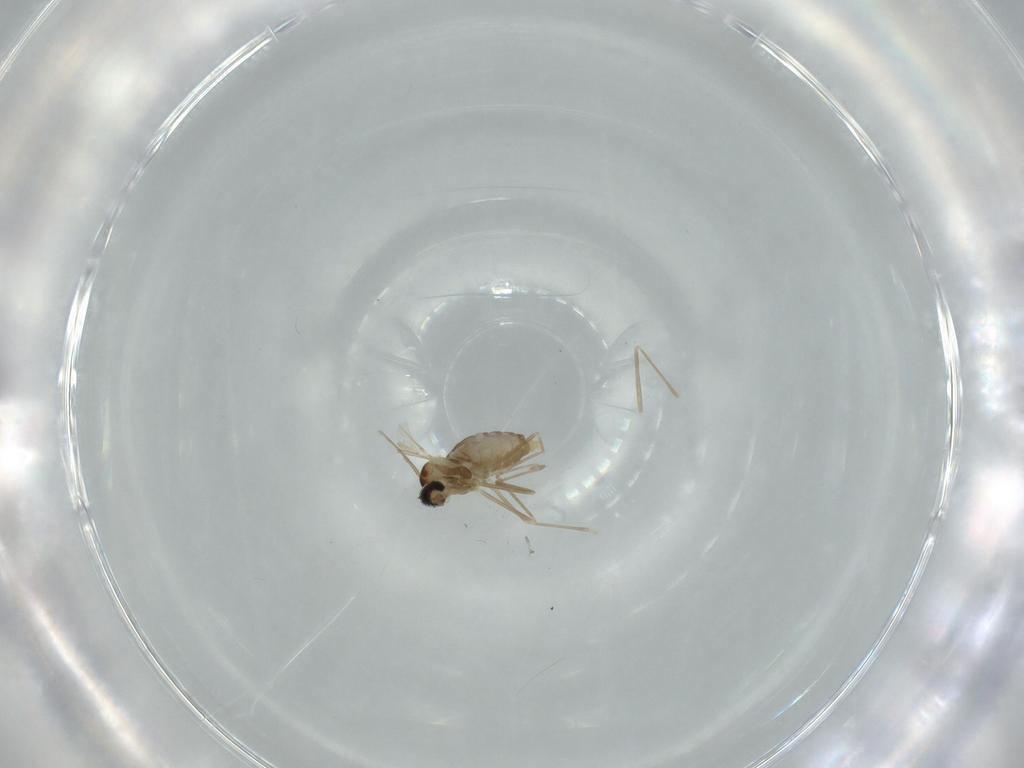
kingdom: Animalia
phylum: Arthropoda
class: Insecta
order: Diptera
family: Cecidomyiidae
